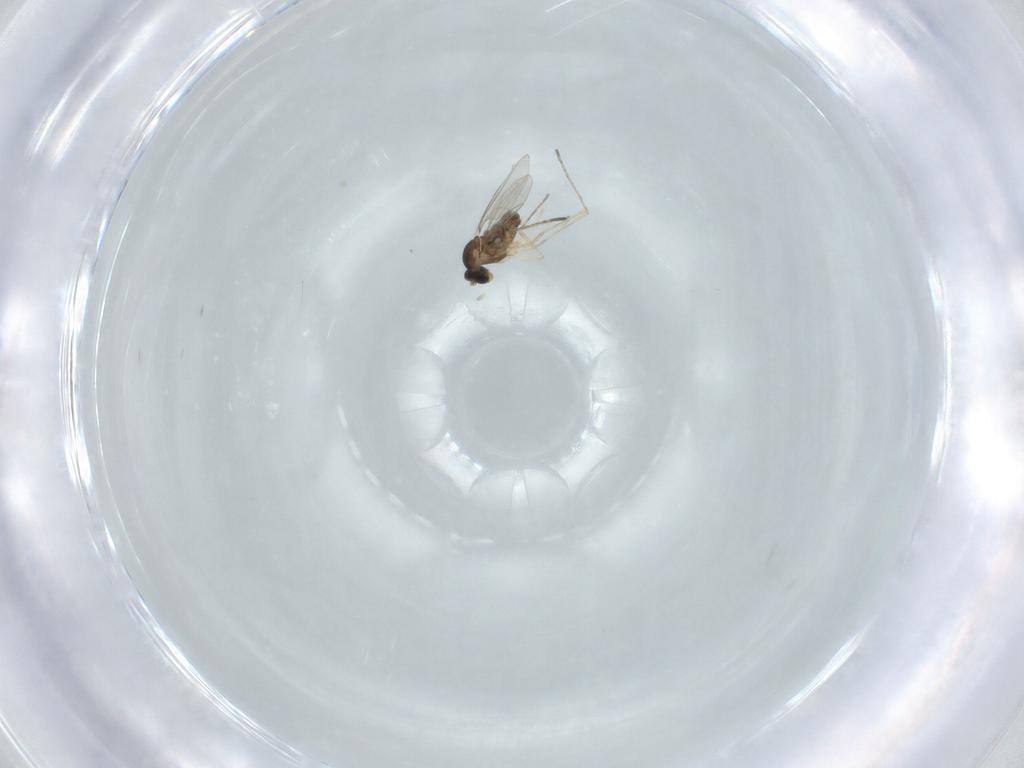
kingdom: Animalia
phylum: Arthropoda
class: Insecta
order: Diptera
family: Cecidomyiidae
